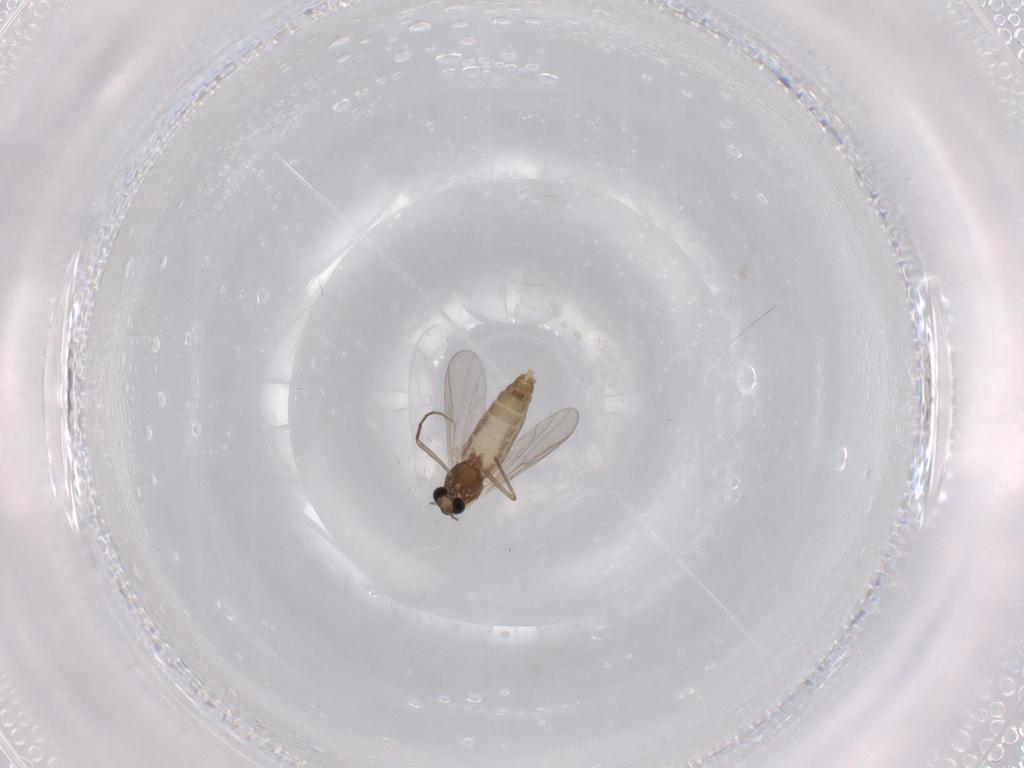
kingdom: Animalia
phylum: Arthropoda
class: Insecta
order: Diptera
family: Chironomidae
